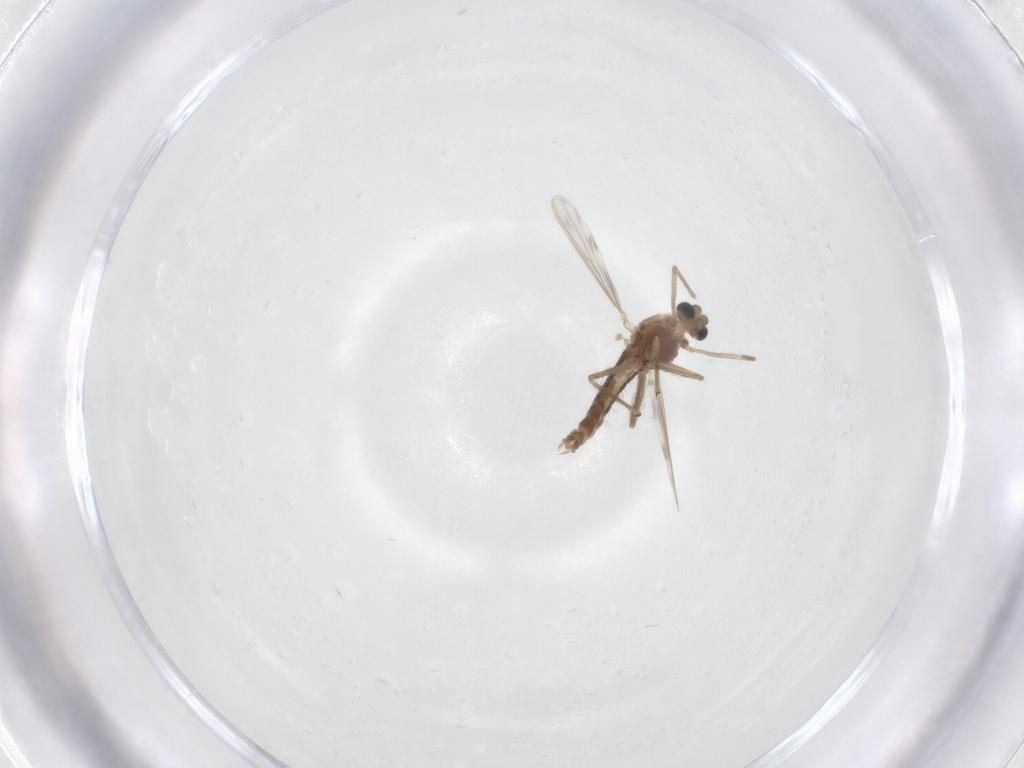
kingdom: Animalia
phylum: Arthropoda
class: Insecta
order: Diptera
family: Chironomidae
